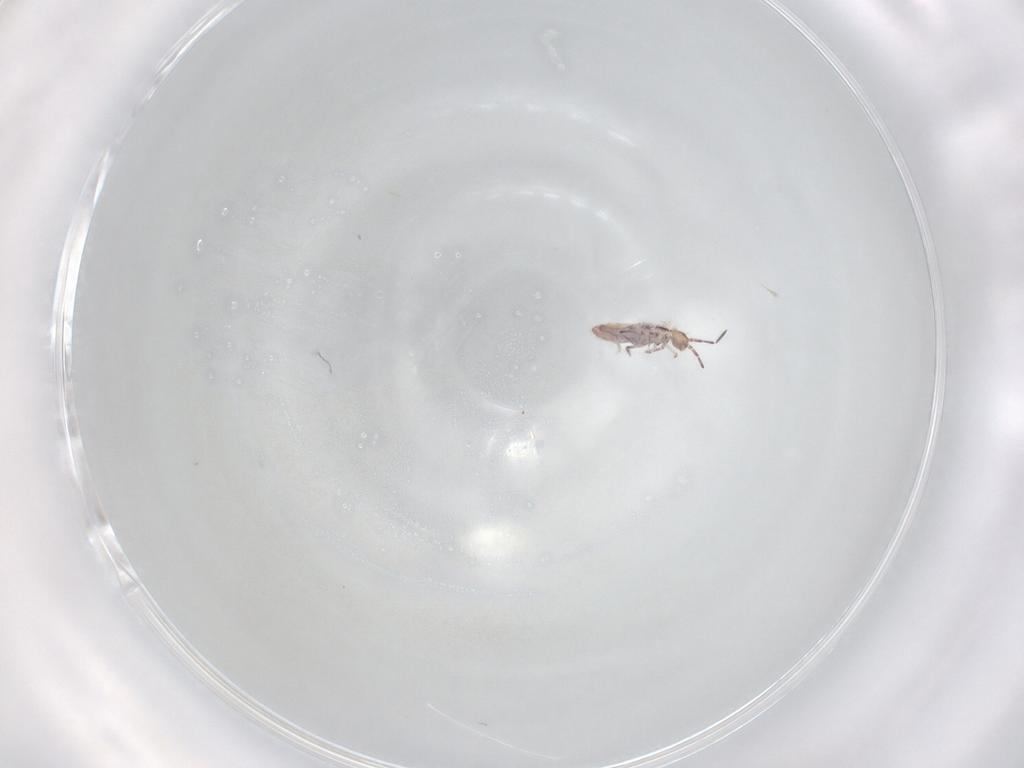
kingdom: Animalia
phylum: Arthropoda
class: Collembola
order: Entomobryomorpha
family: Entomobryidae
